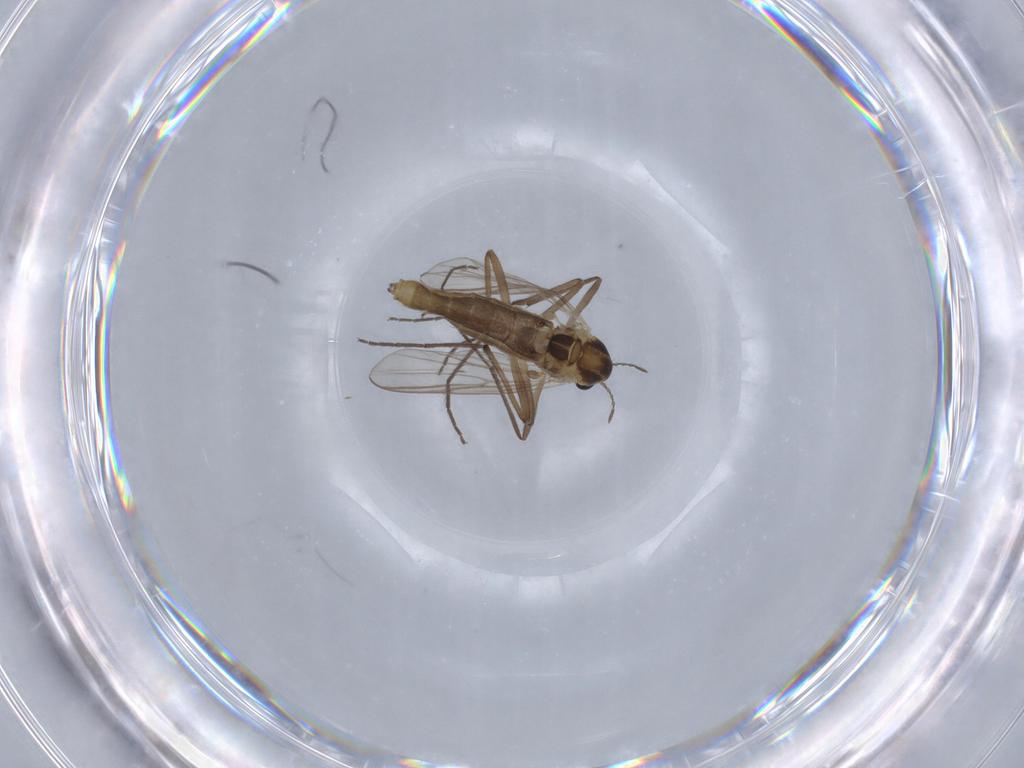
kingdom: Animalia
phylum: Arthropoda
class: Insecta
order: Diptera
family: Chironomidae
